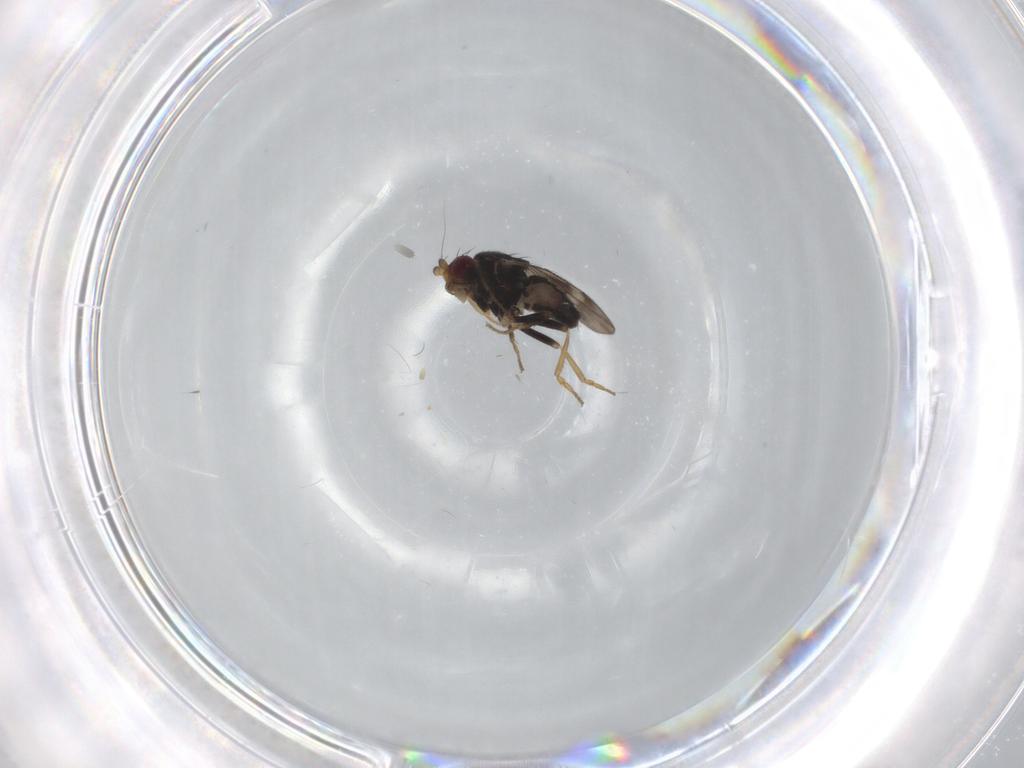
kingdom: Animalia
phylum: Arthropoda
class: Insecta
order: Diptera
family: Sphaeroceridae
